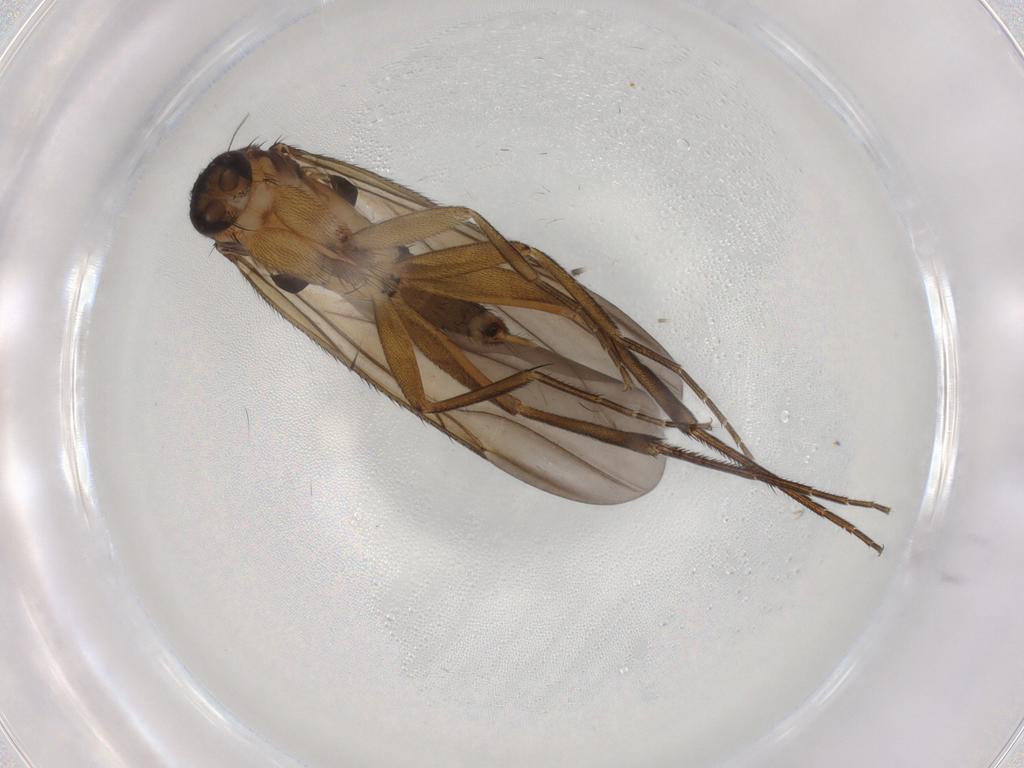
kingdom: Animalia
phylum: Arthropoda
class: Insecta
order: Diptera
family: Phoridae
